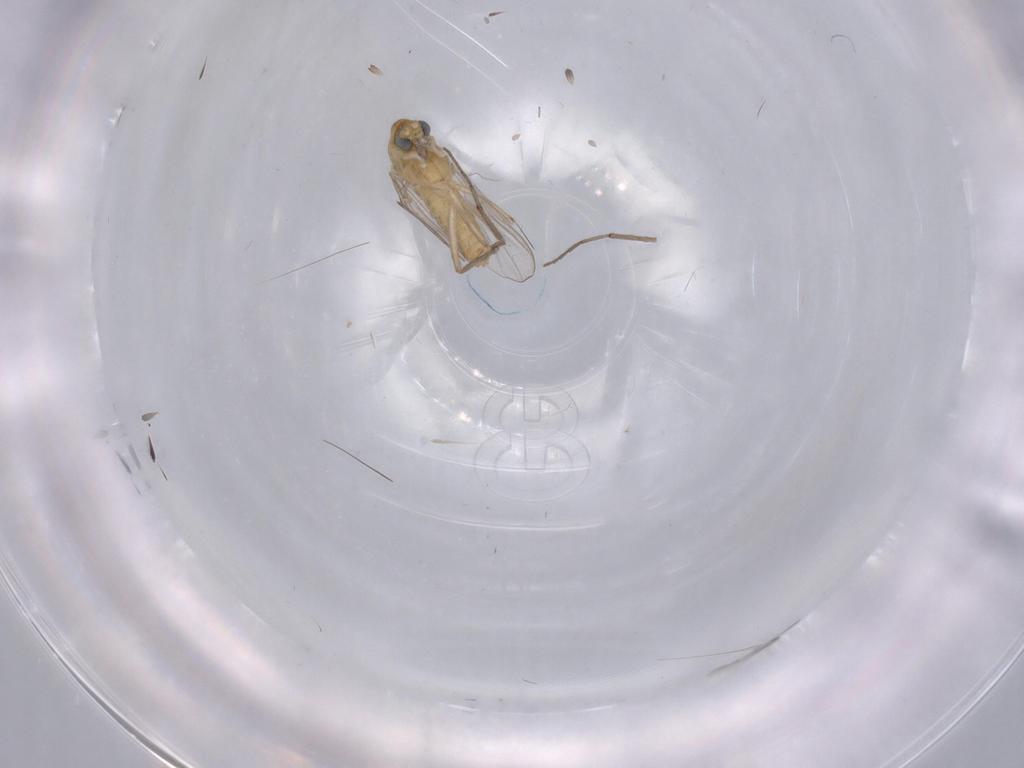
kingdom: Animalia
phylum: Arthropoda
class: Insecta
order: Diptera
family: Chironomidae
